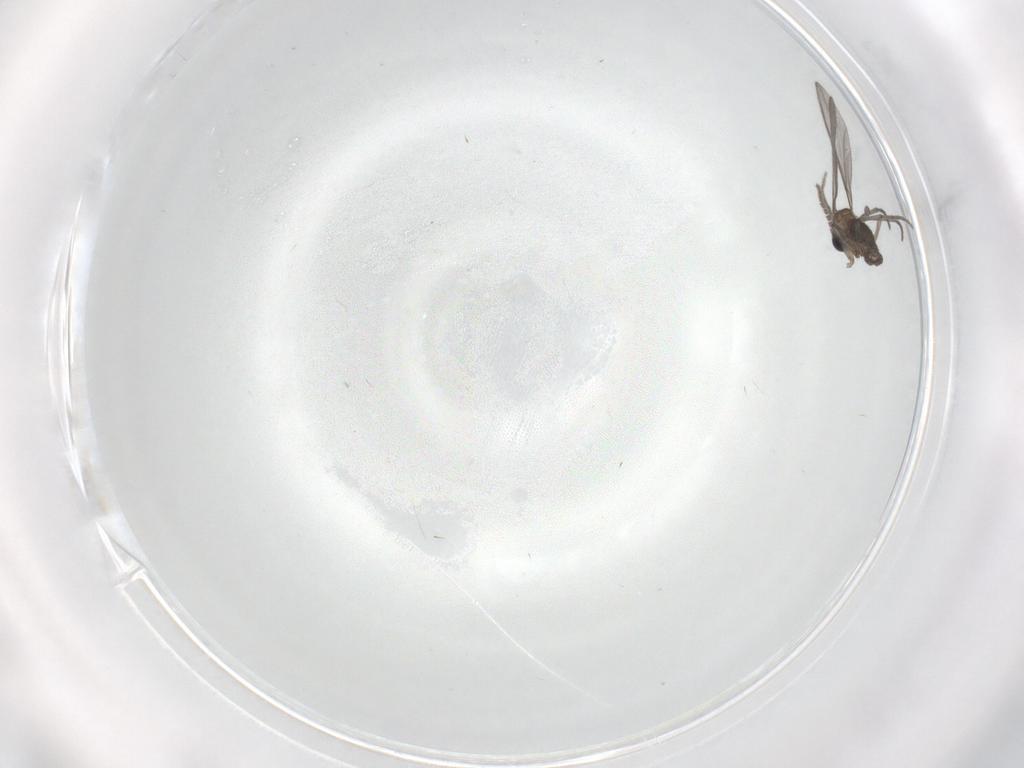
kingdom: Animalia
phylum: Arthropoda
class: Insecta
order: Diptera
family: Sciaridae
